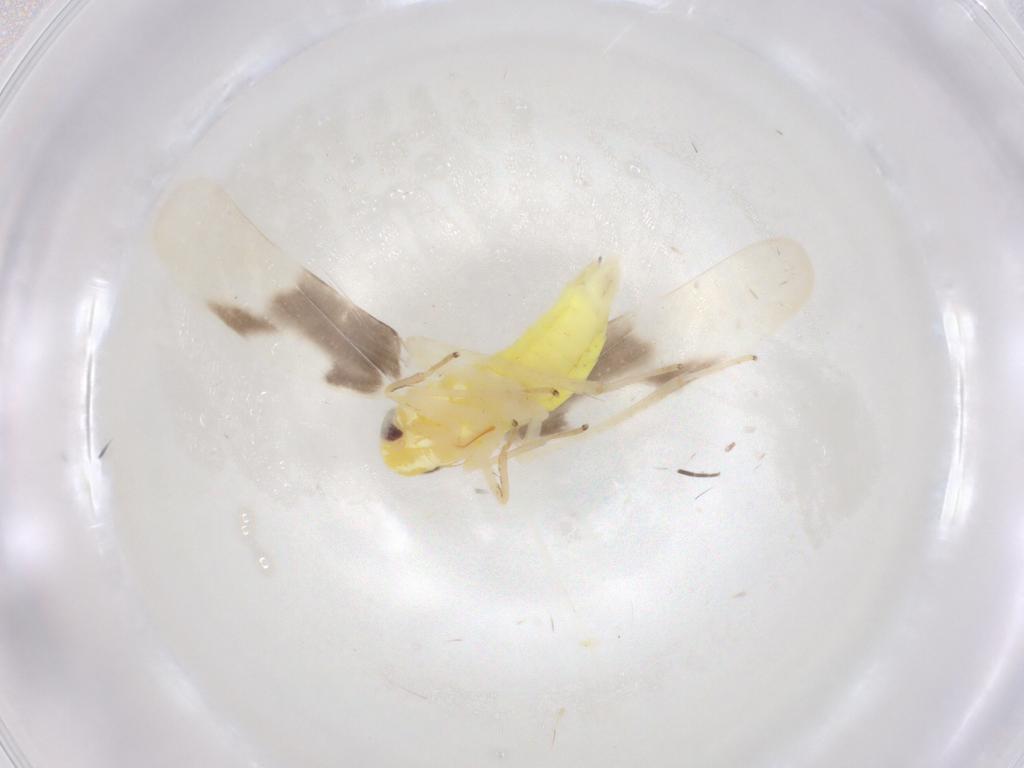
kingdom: Animalia
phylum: Arthropoda
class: Insecta
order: Hemiptera
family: Cicadellidae
